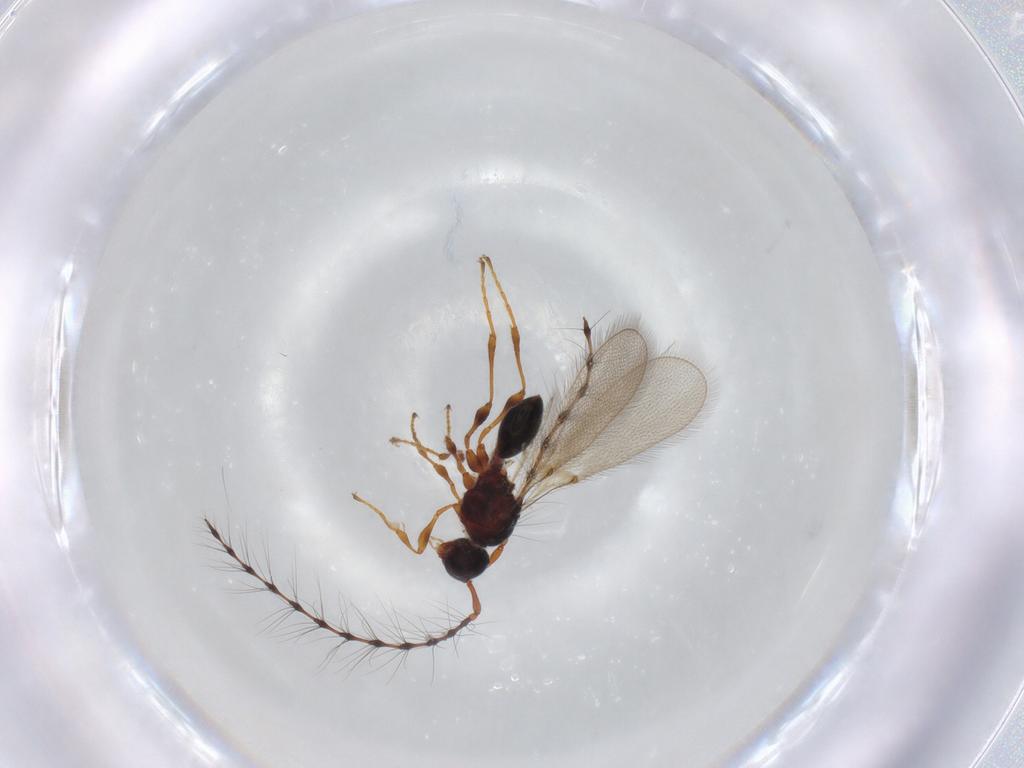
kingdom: Animalia
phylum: Arthropoda
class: Insecta
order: Hymenoptera
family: Diapriidae
